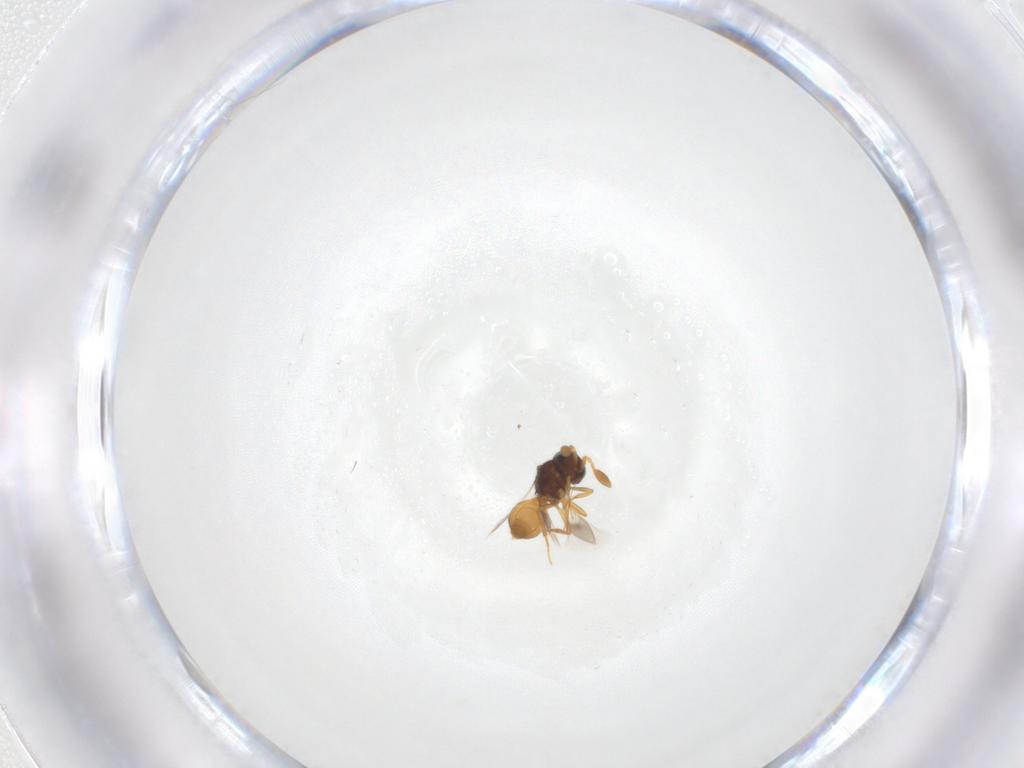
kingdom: Animalia
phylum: Arthropoda
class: Insecta
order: Hymenoptera
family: Scelionidae
